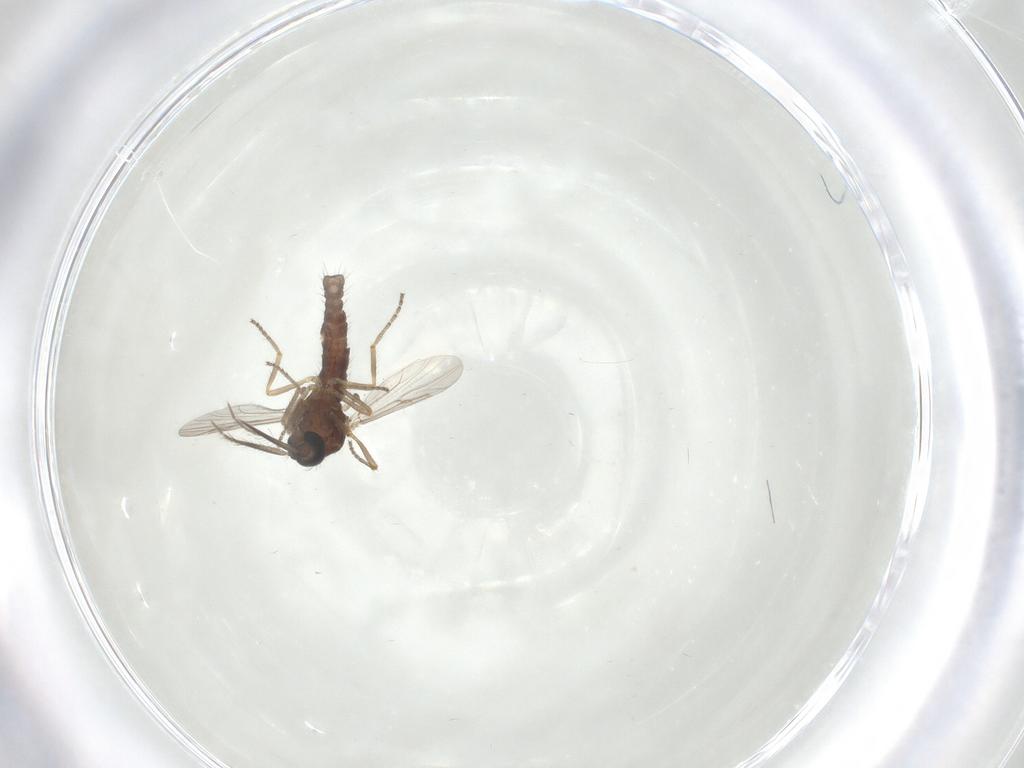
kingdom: Animalia
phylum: Arthropoda
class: Insecta
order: Diptera
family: Ceratopogonidae
